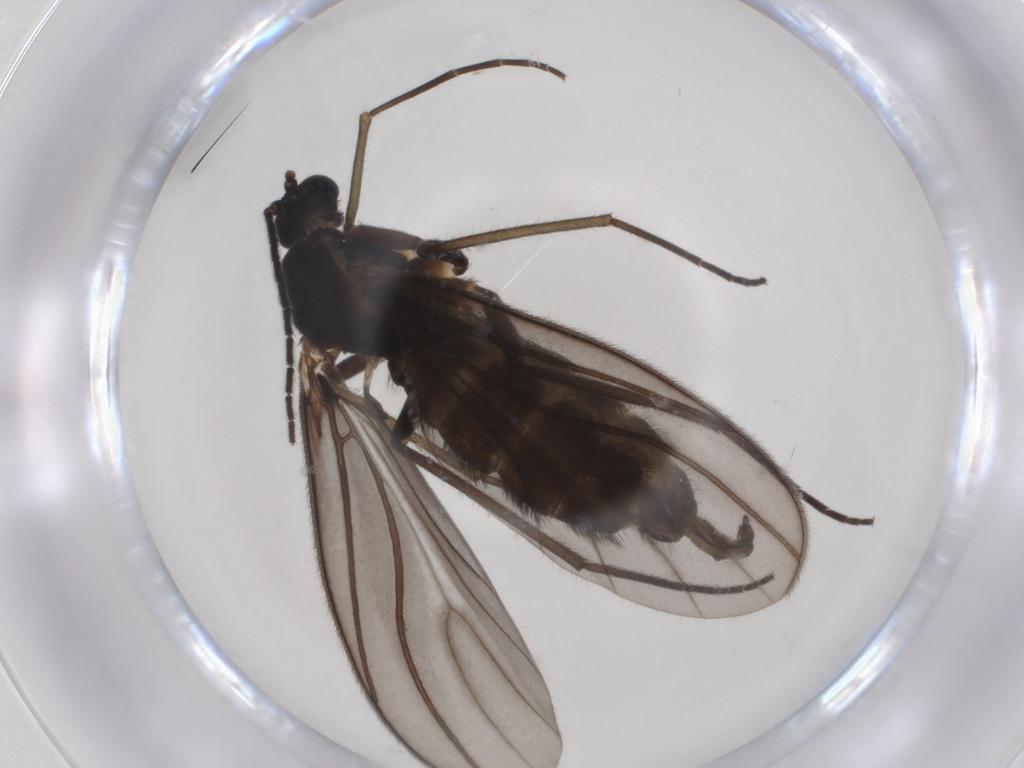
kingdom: Animalia
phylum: Arthropoda
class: Insecta
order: Diptera
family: Sciaridae
